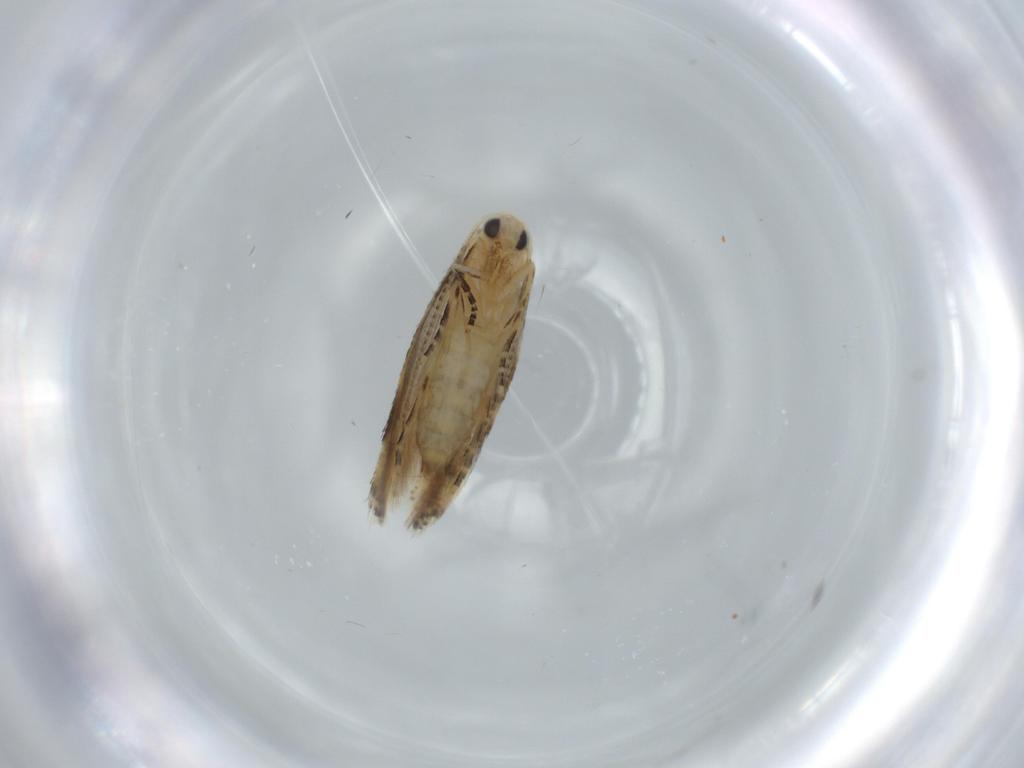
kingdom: Animalia
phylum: Arthropoda
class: Insecta
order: Lepidoptera
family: Bucculatricidae
